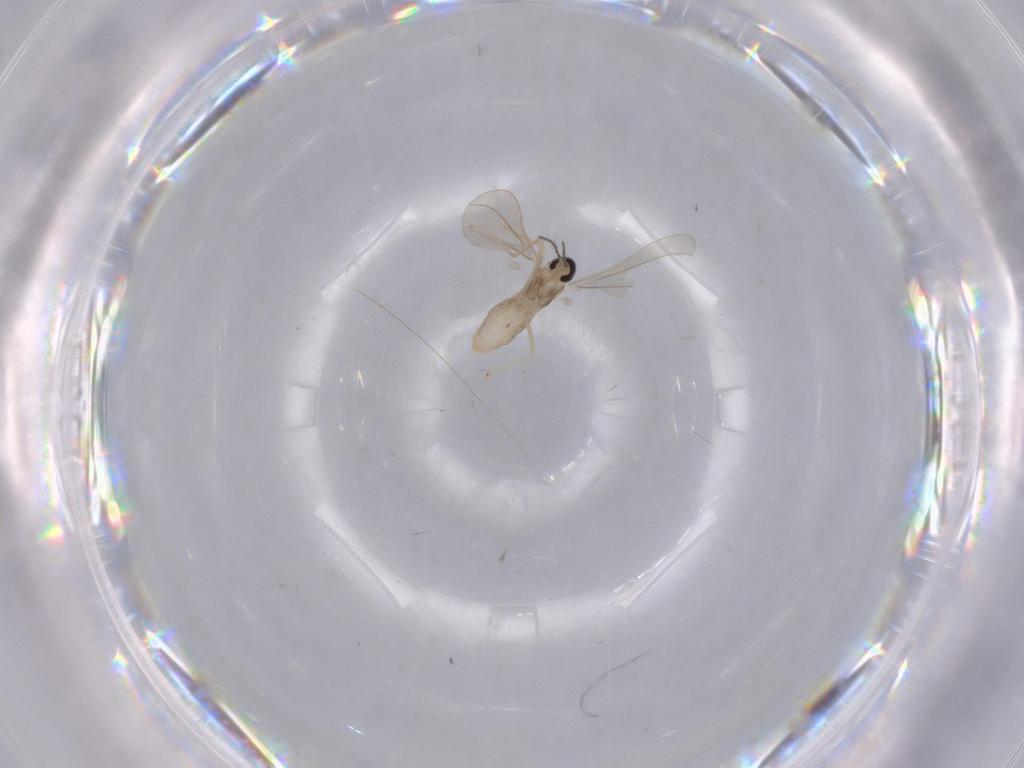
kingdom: Animalia
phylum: Arthropoda
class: Insecta
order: Diptera
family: Cecidomyiidae
